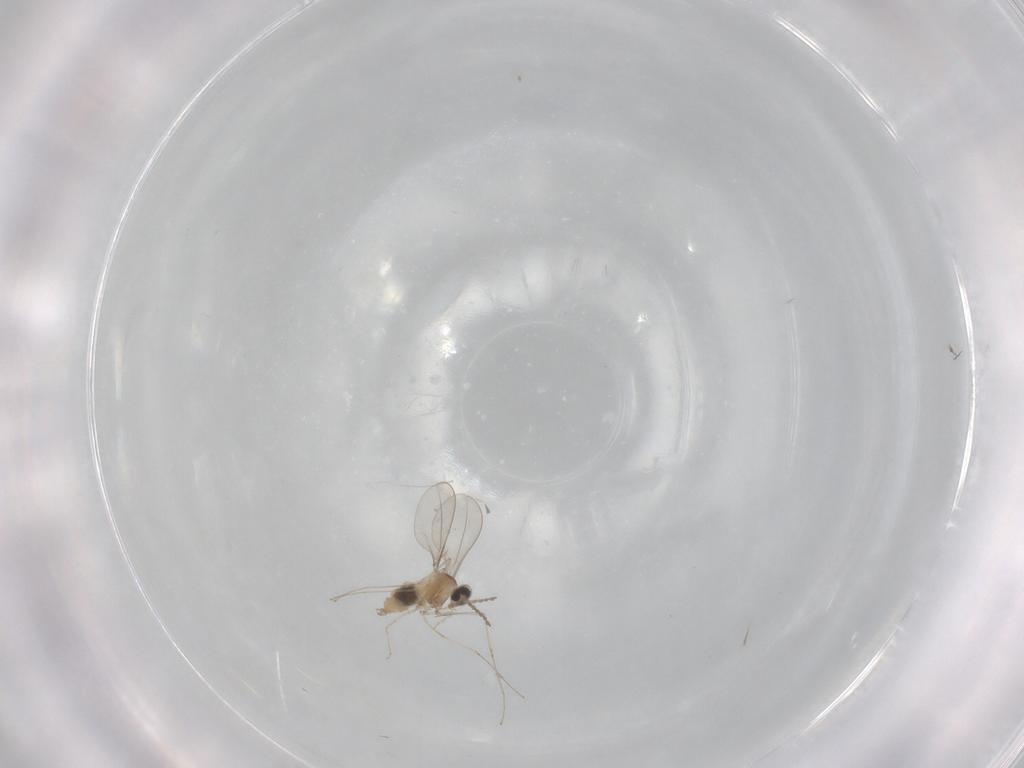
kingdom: Animalia
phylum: Arthropoda
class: Insecta
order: Diptera
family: Cecidomyiidae
